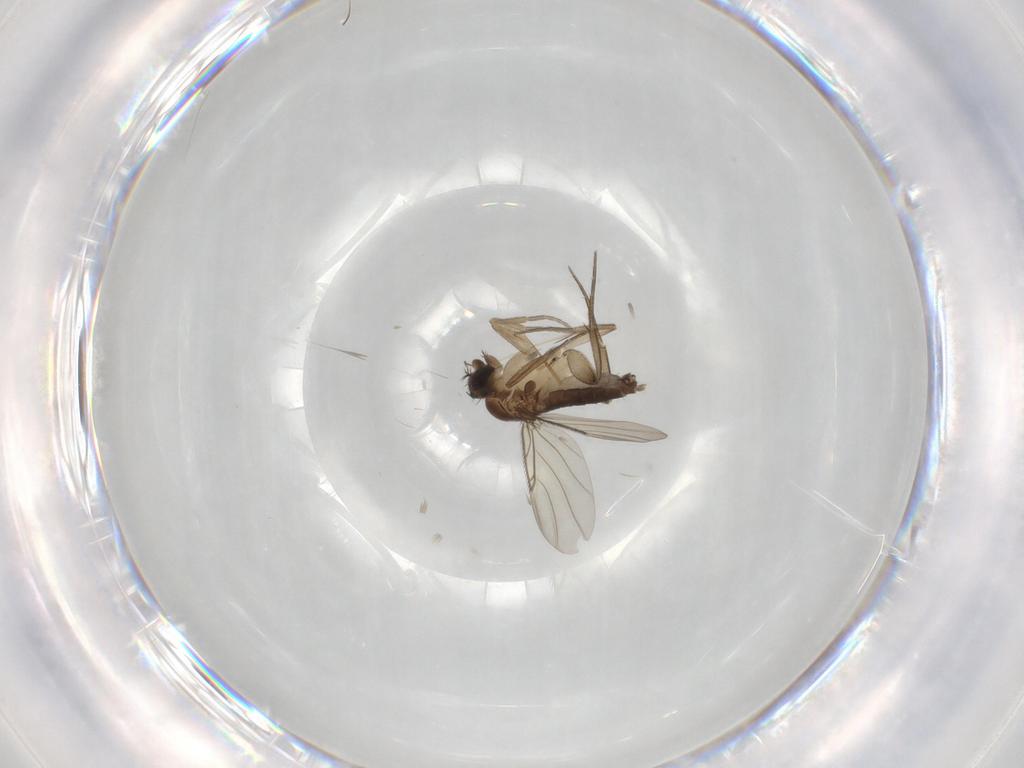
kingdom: Animalia
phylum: Arthropoda
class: Insecta
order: Diptera
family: Phoridae
